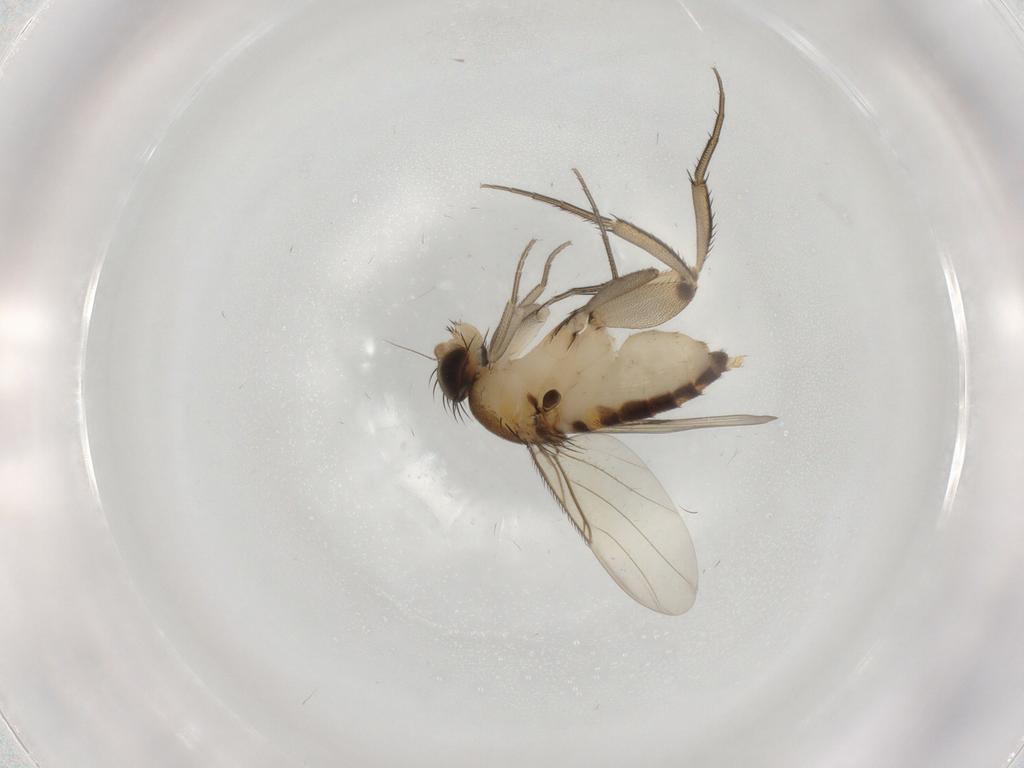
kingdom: Animalia
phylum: Arthropoda
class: Insecta
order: Diptera
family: Phoridae
